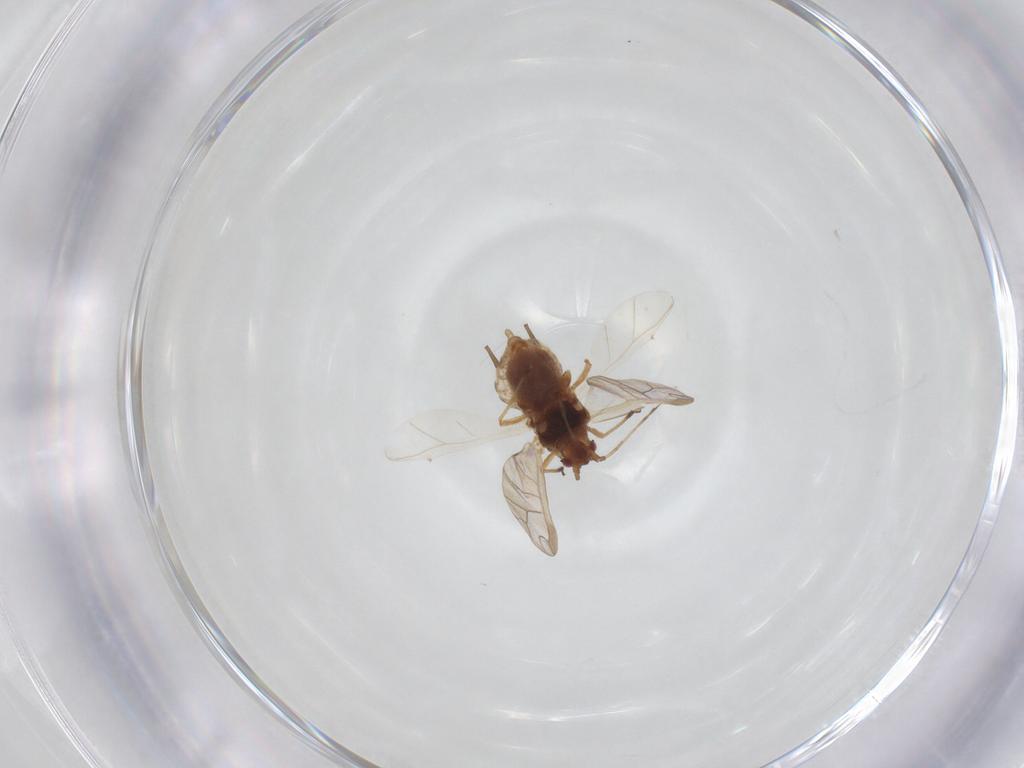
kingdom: Animalia
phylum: Arthropoda
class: Insecta
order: Hemiptera
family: Aphididae
